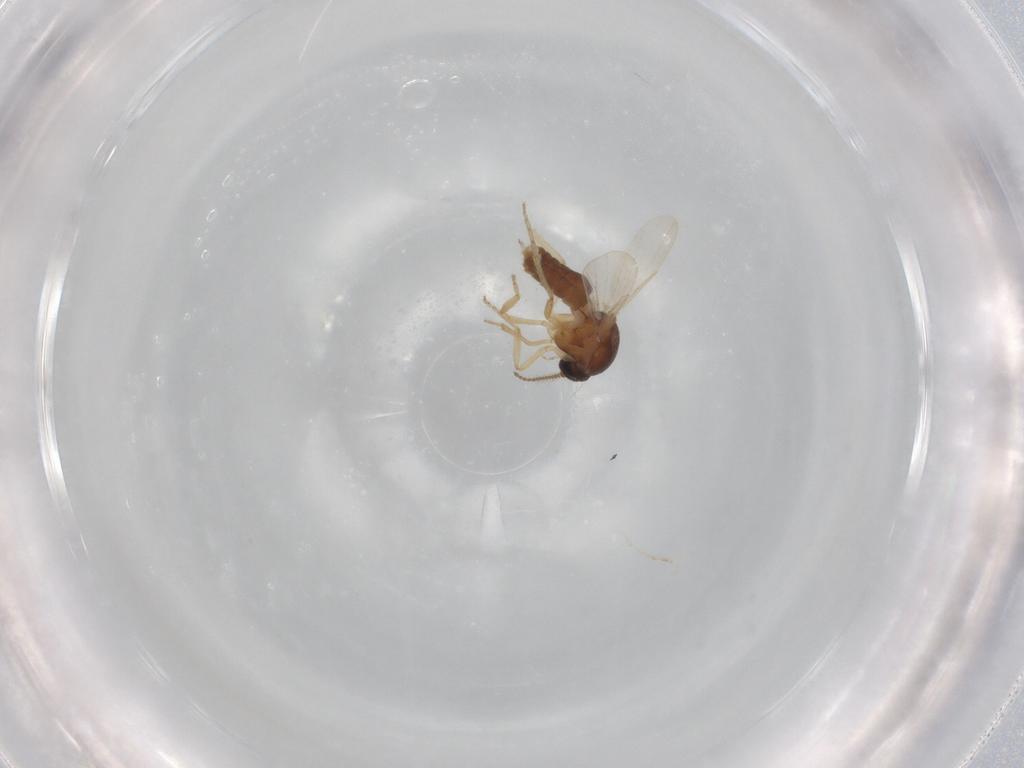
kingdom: Animalia
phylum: Arthropoda
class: Insecta
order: Diptera
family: Ceratopogonidae
